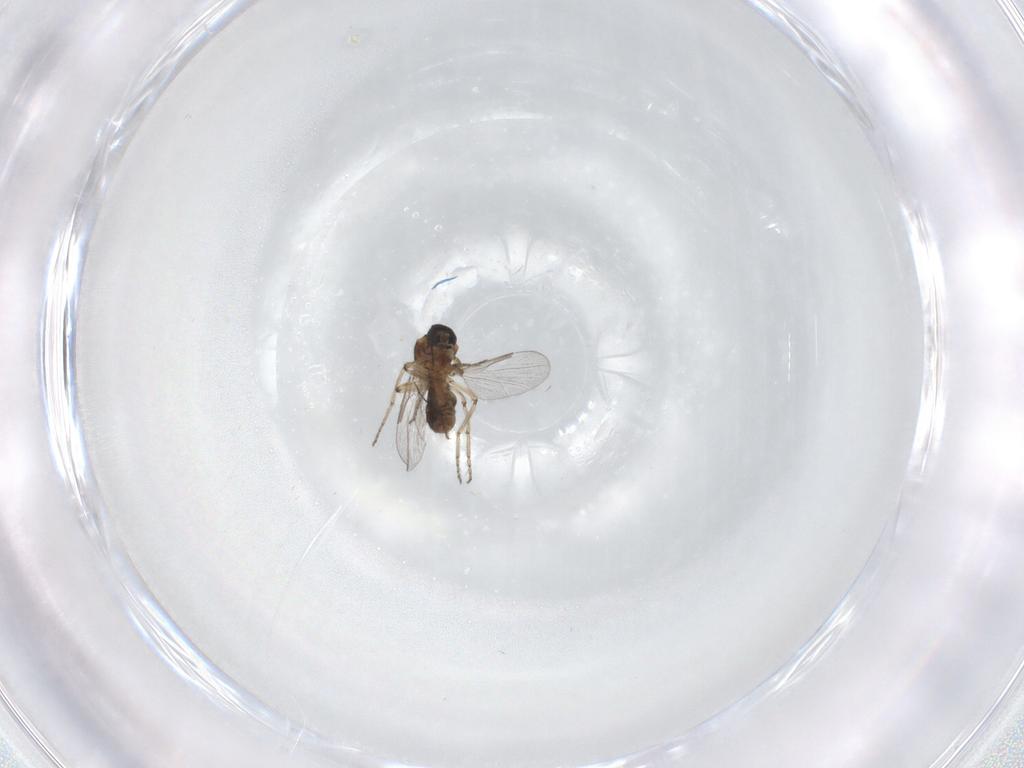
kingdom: Animalia
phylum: Arthropoda
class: Insecta
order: Diptera
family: Ceratopogonidae
